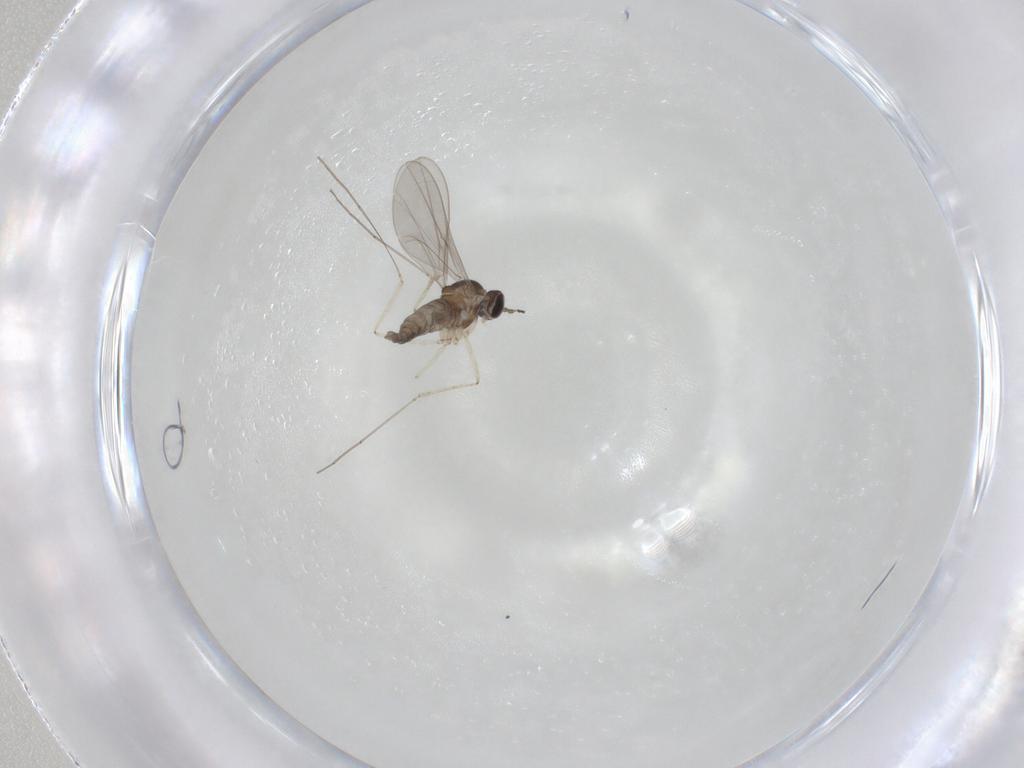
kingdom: Animalia
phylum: Arthropoda
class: Insecta
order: Diptera
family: Cecidomyiidae
